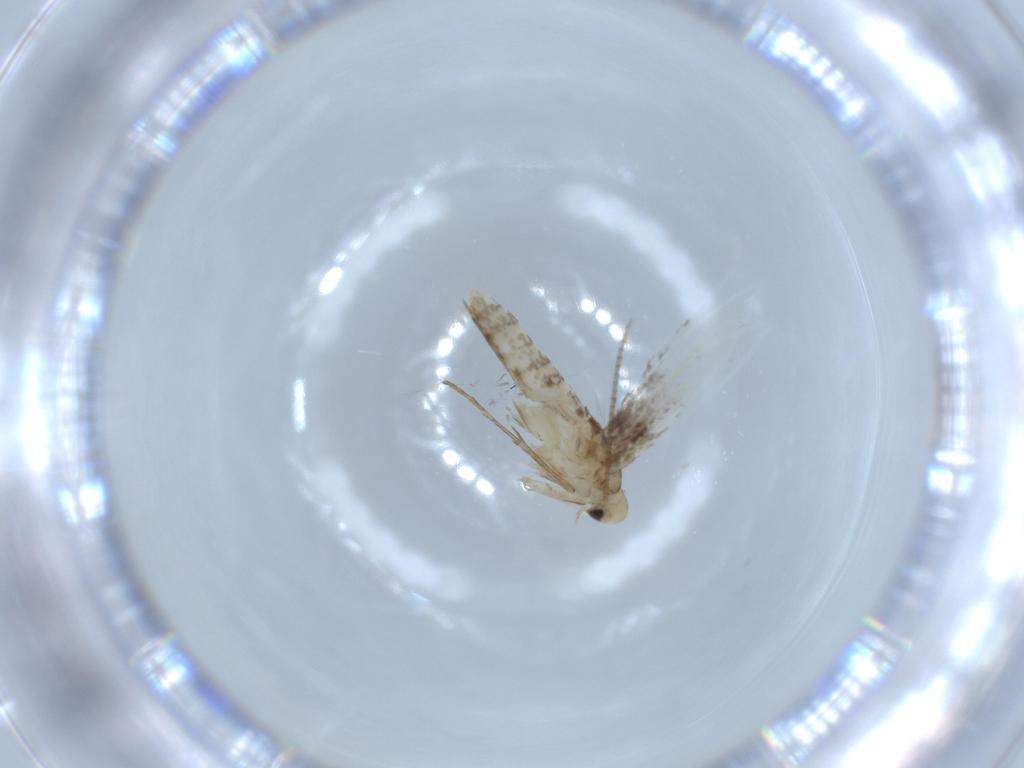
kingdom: Animalia
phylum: Arthropoda
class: Insecta
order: Lepidoptera
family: Gracillariidae
